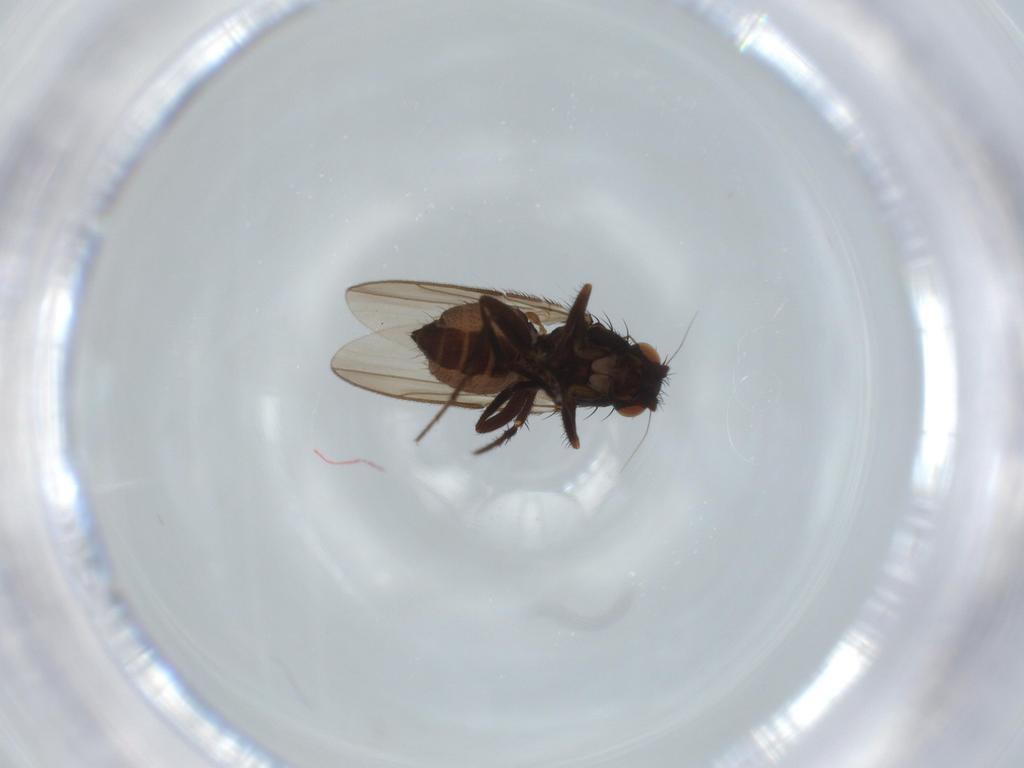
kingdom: Animalia
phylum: Arthropoda
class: Insecta
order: Diptera
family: Sphaeroceridae
